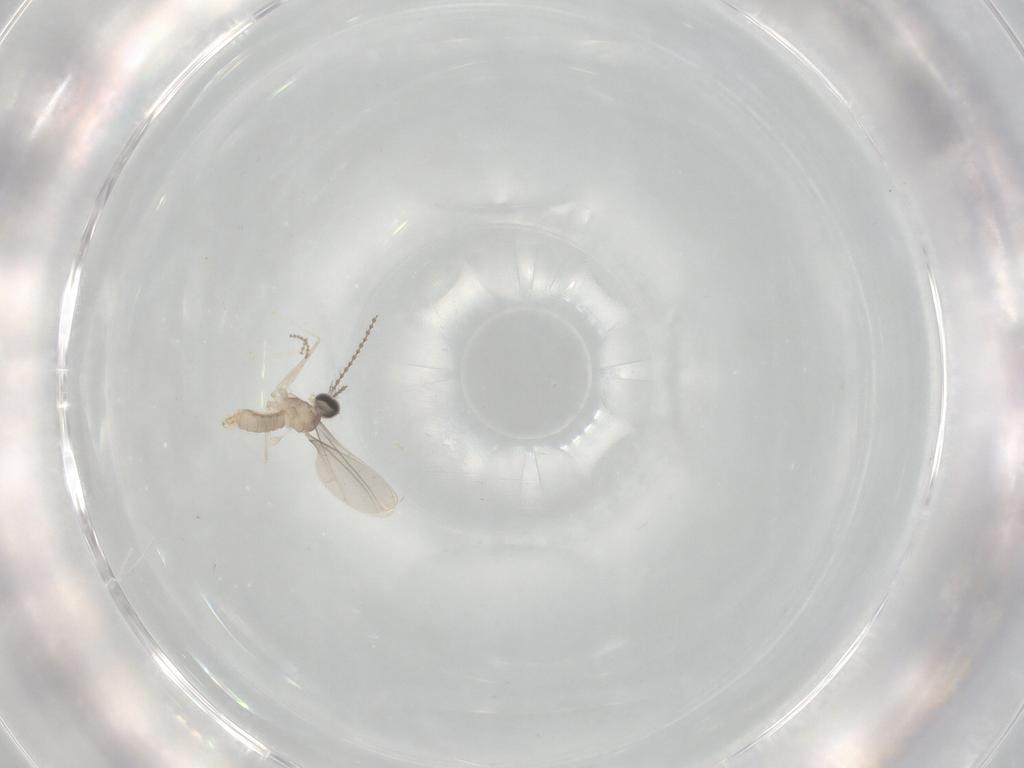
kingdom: Animalia
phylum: Arthropoda
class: Insecta
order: Diptera
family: Cecidomyiidae
